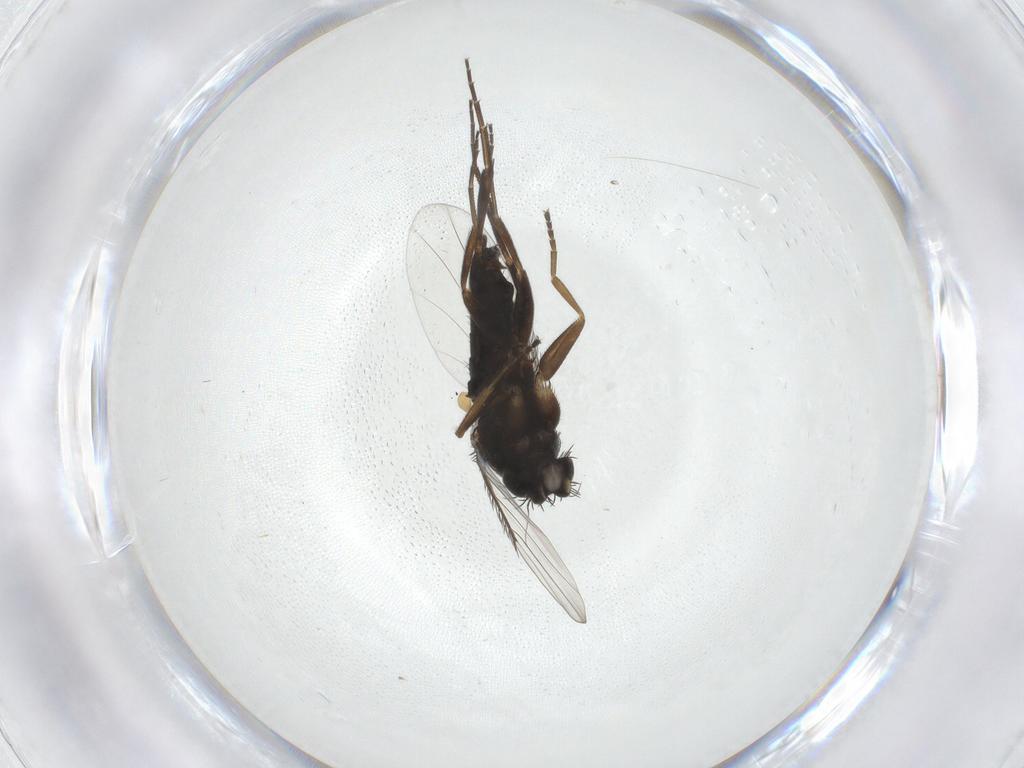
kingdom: Animalia
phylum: Arthropoda
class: Insecta
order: Diptera
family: Phoridae
